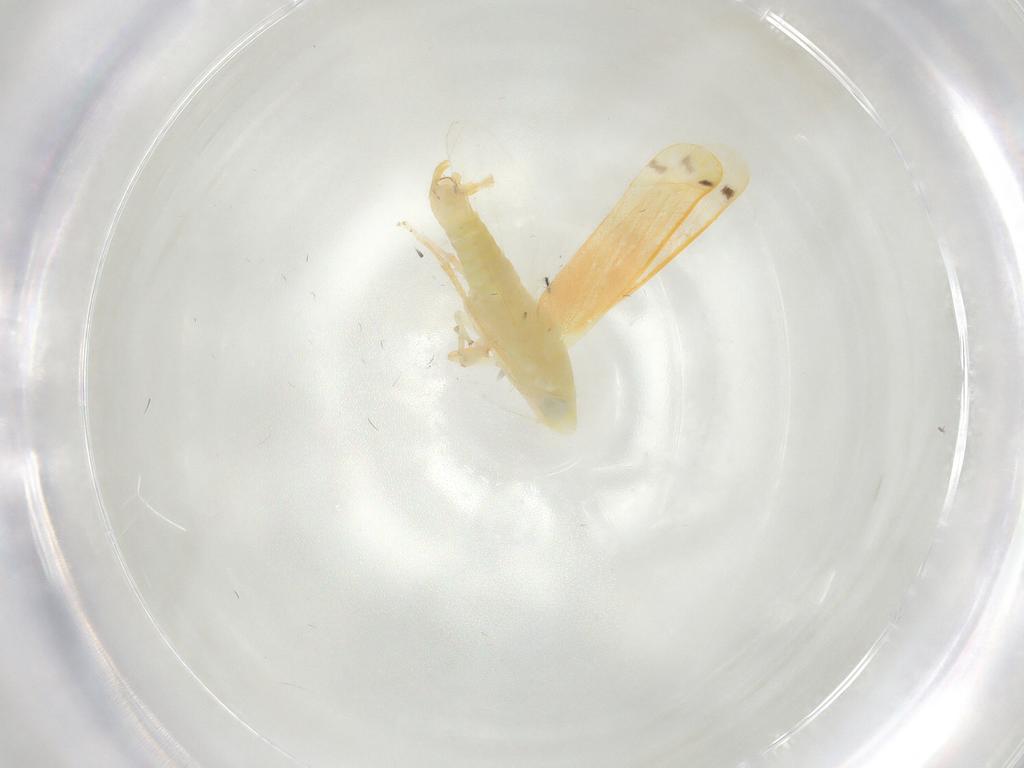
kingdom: Animalia
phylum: Arthropoda
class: Insecta
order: Hemiptera
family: Cicadellidae
